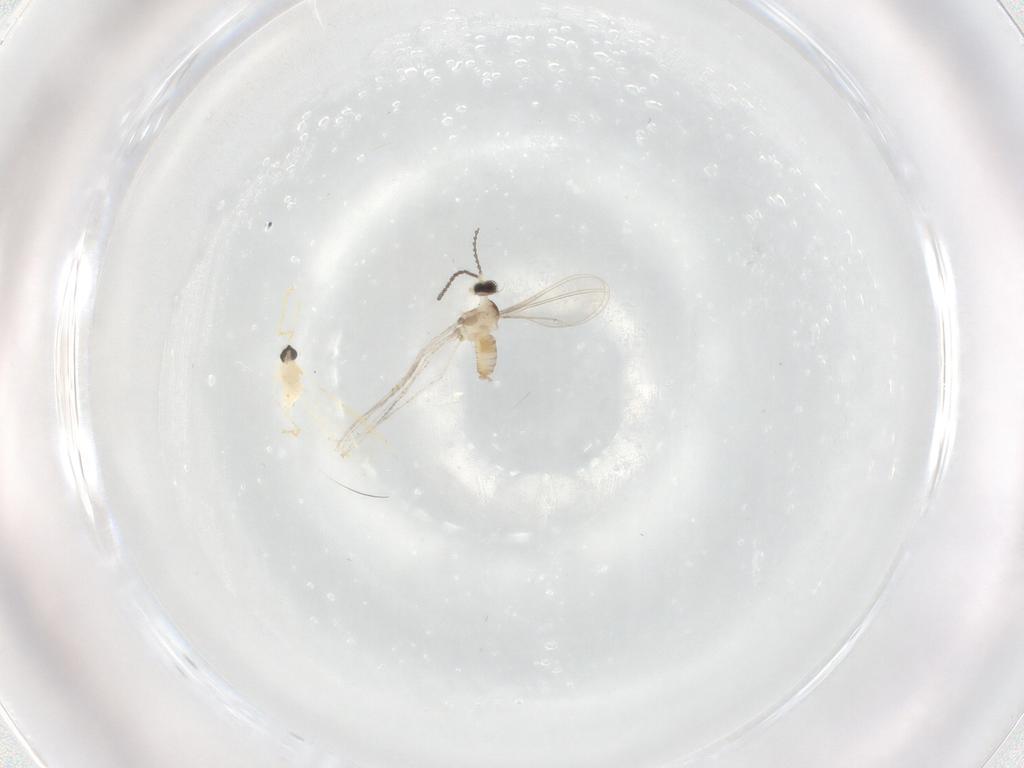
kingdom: Animalia
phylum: Arthropoda
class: Insecta
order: Diptera
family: Cecidomyiidae
